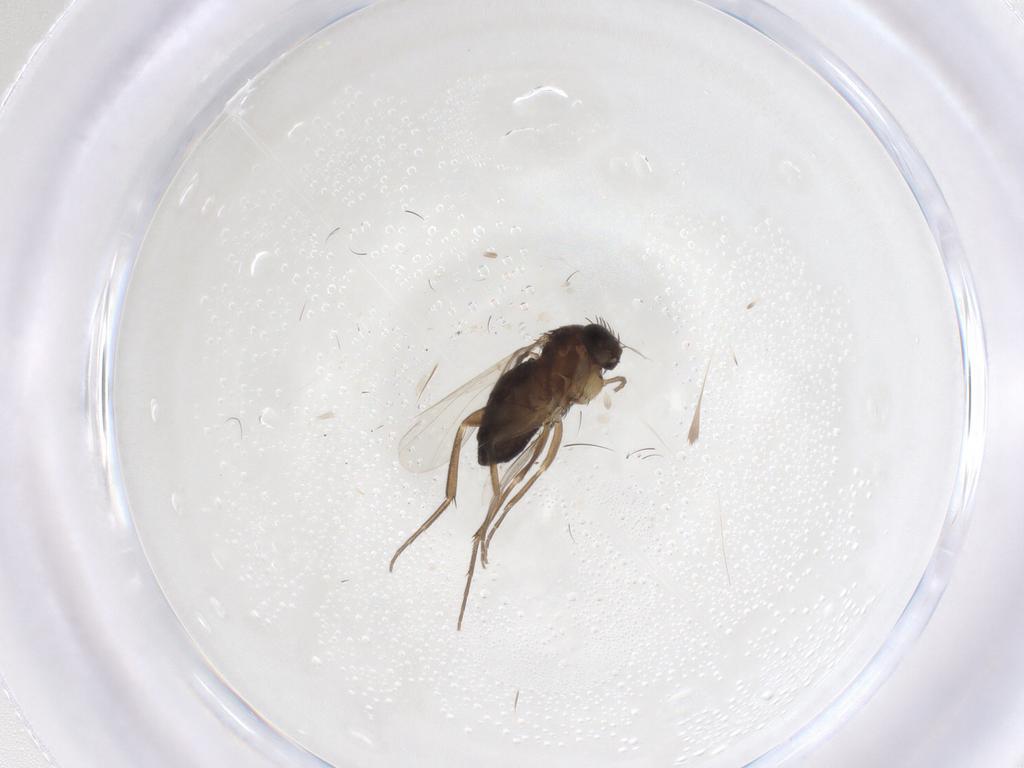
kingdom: Animalia
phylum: Arthropoda
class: Insecta
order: Diptera
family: Phoridae
